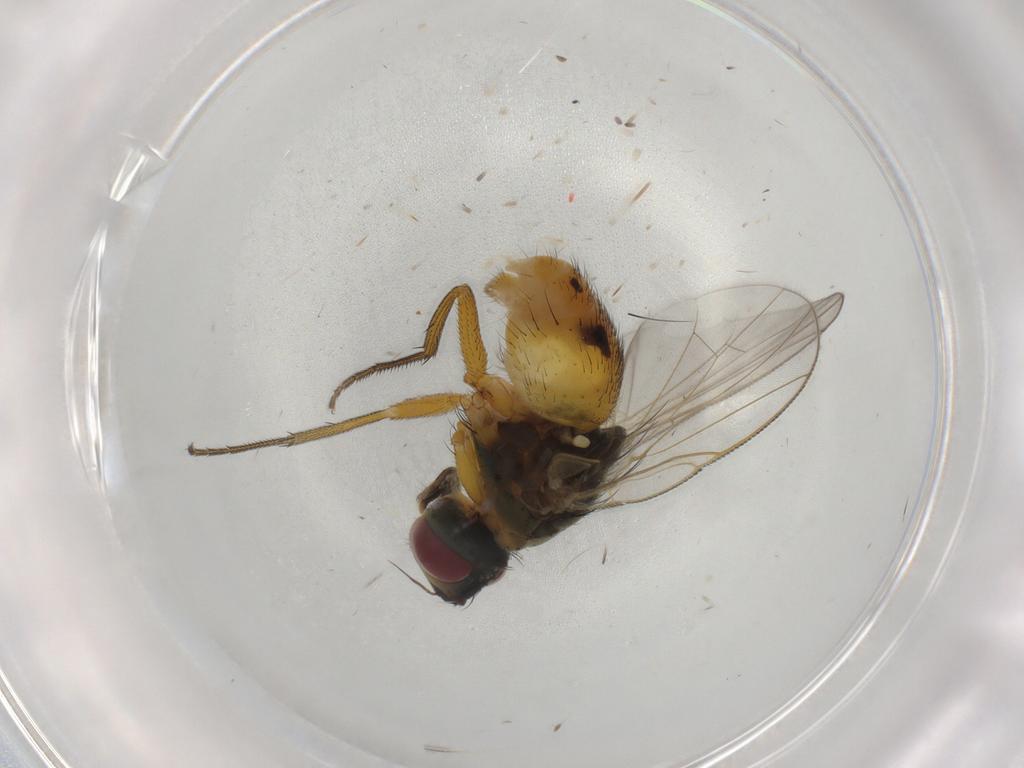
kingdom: Animalia
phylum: Arthropoda
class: Insecta
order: Diptera
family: Muscidae
